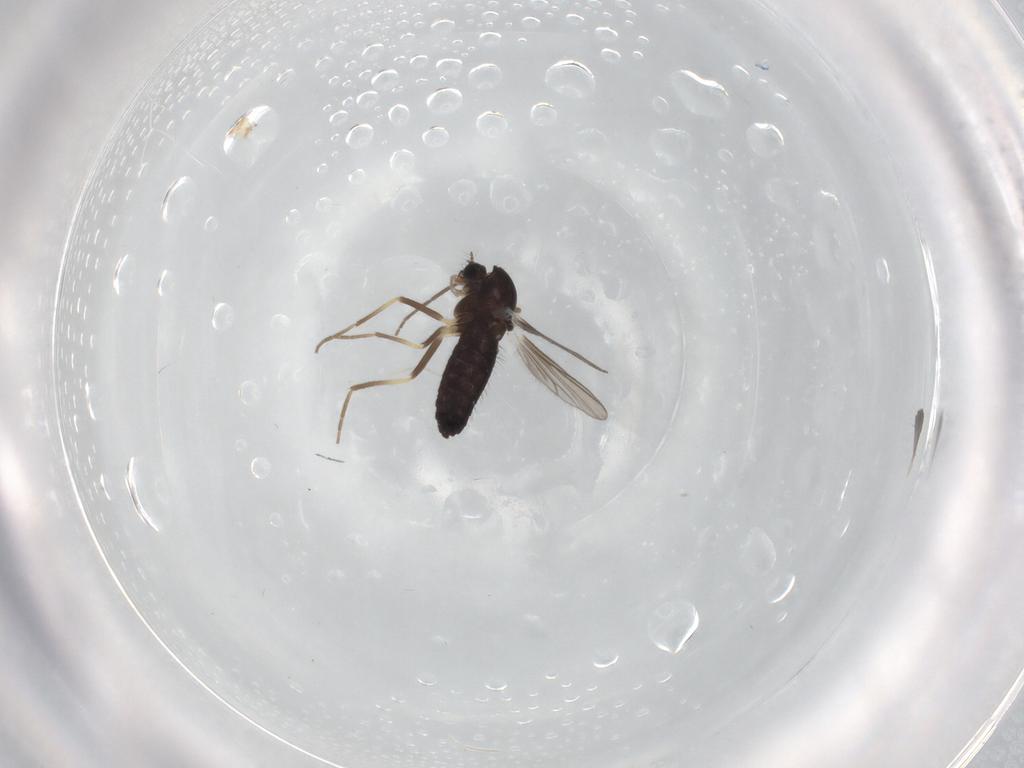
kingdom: Animalia
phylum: Arthropoda
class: Insecta
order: Diptera
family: Chironomidae
